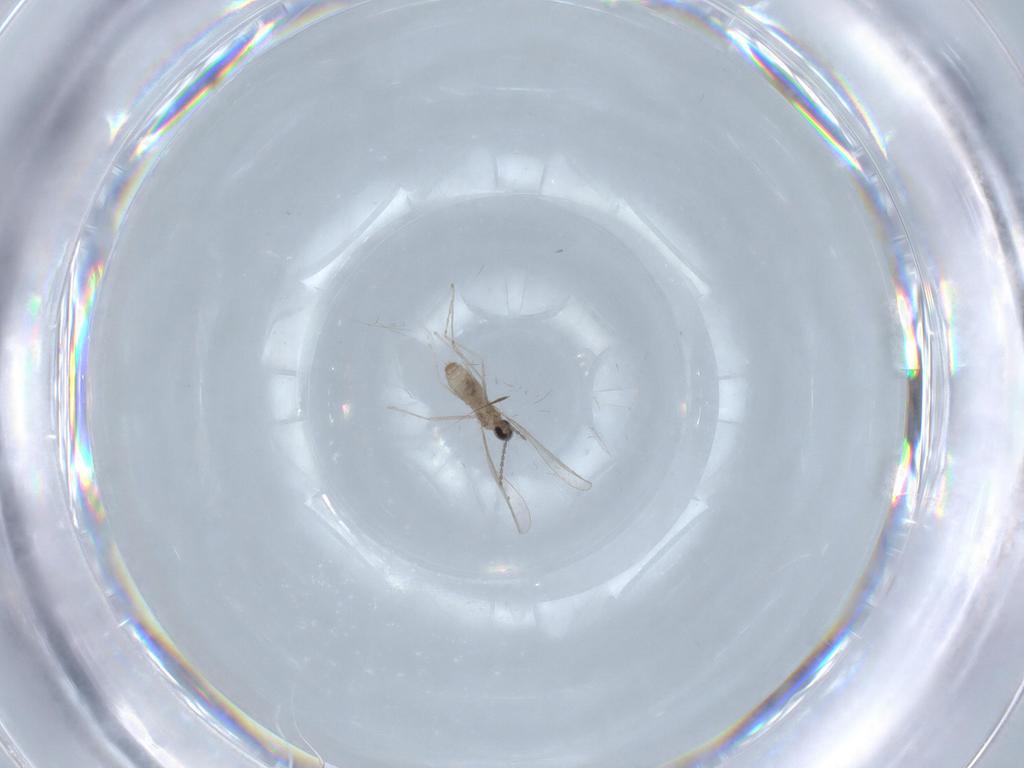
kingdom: Animalia
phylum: Arthropoda
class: Insecta
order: Diptera
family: Cecidomyiidae
